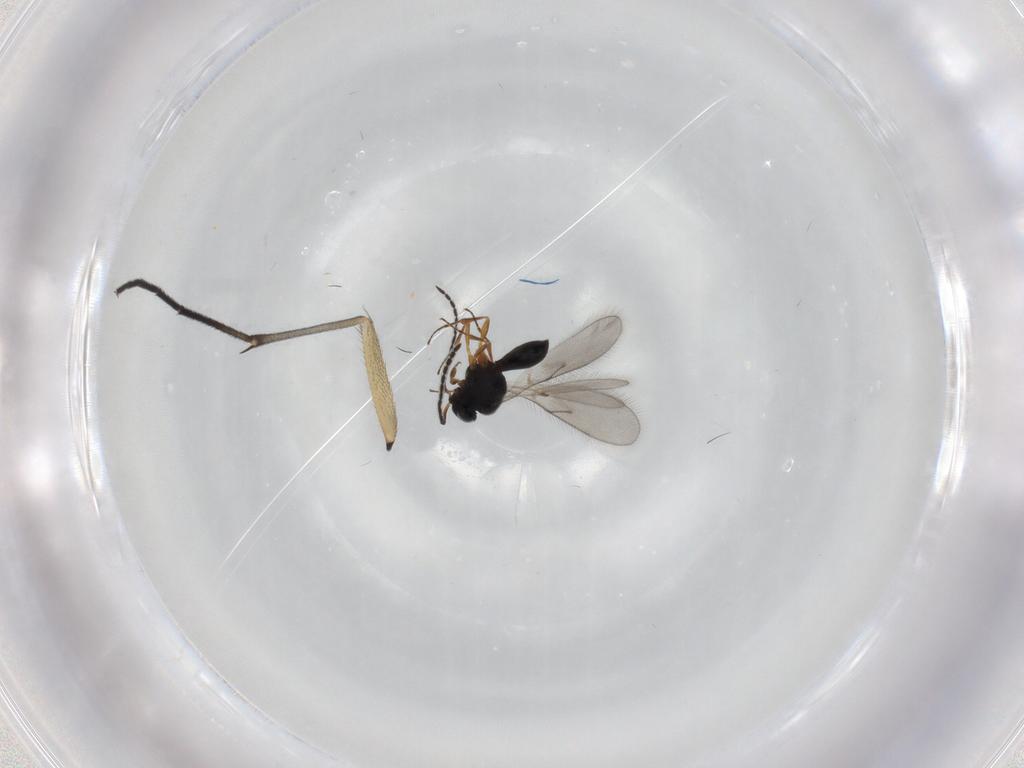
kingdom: Animalia
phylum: Arthropoda
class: Insecta
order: Hymenoptera
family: Scelionidae
